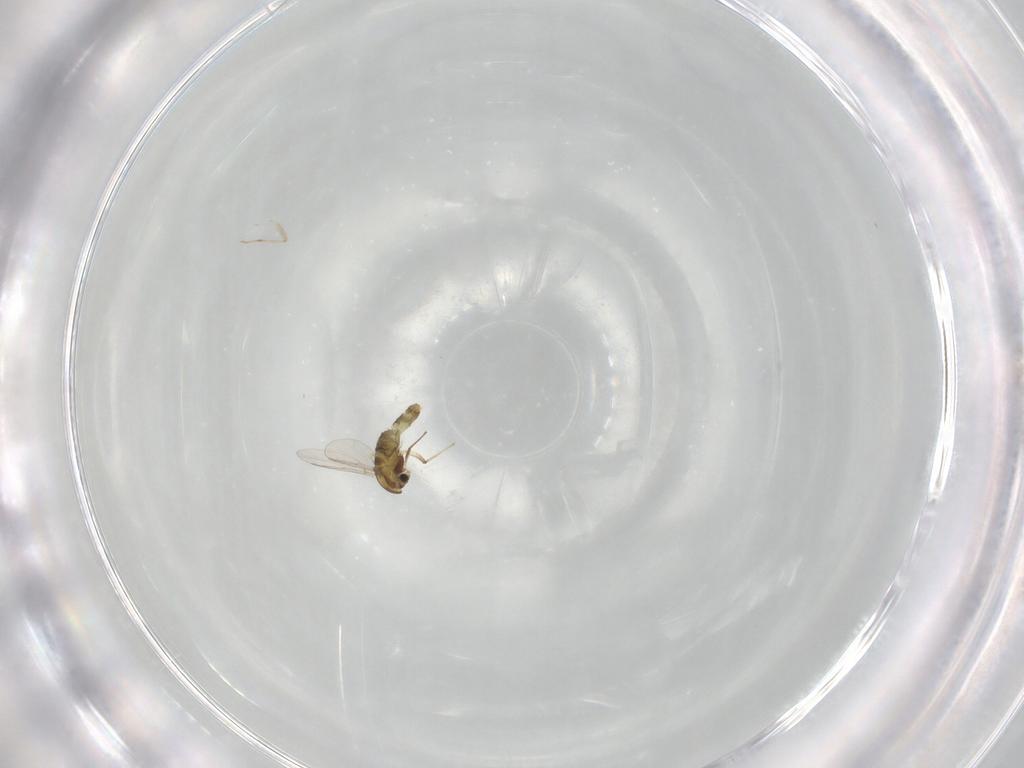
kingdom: Animalia
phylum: Arthropoda
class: Insecta
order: Diptera
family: Chironomidae
